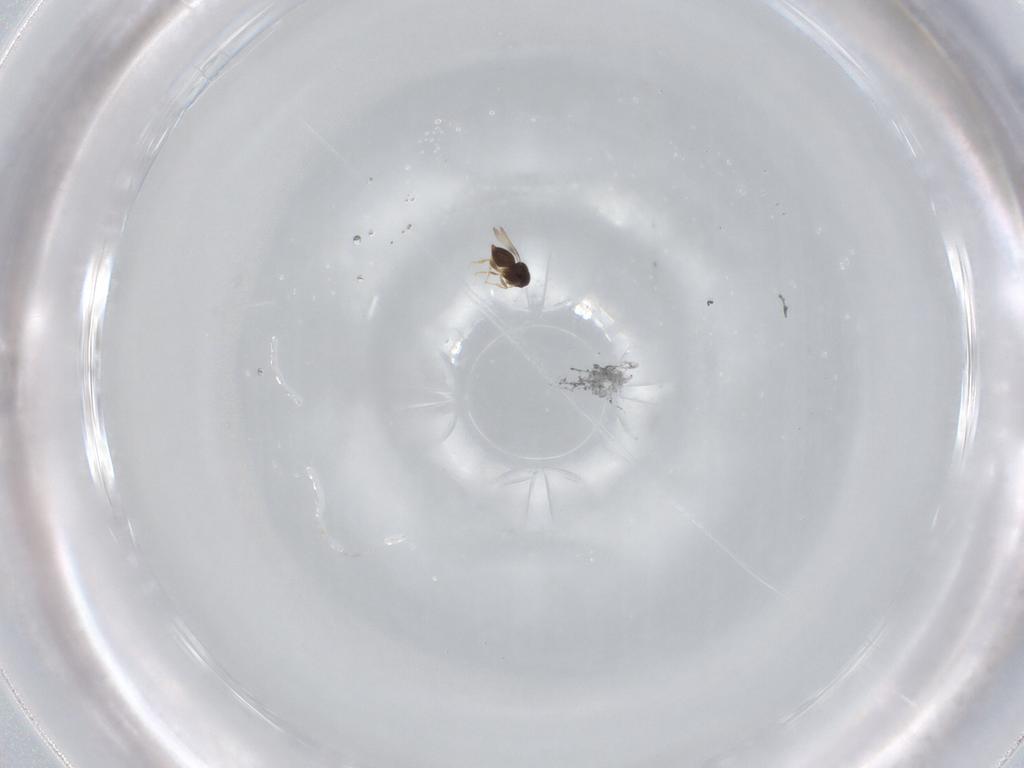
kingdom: Animalia
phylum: Arthropoda
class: Insecta
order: Hymenoptera
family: Ceraphronidae
